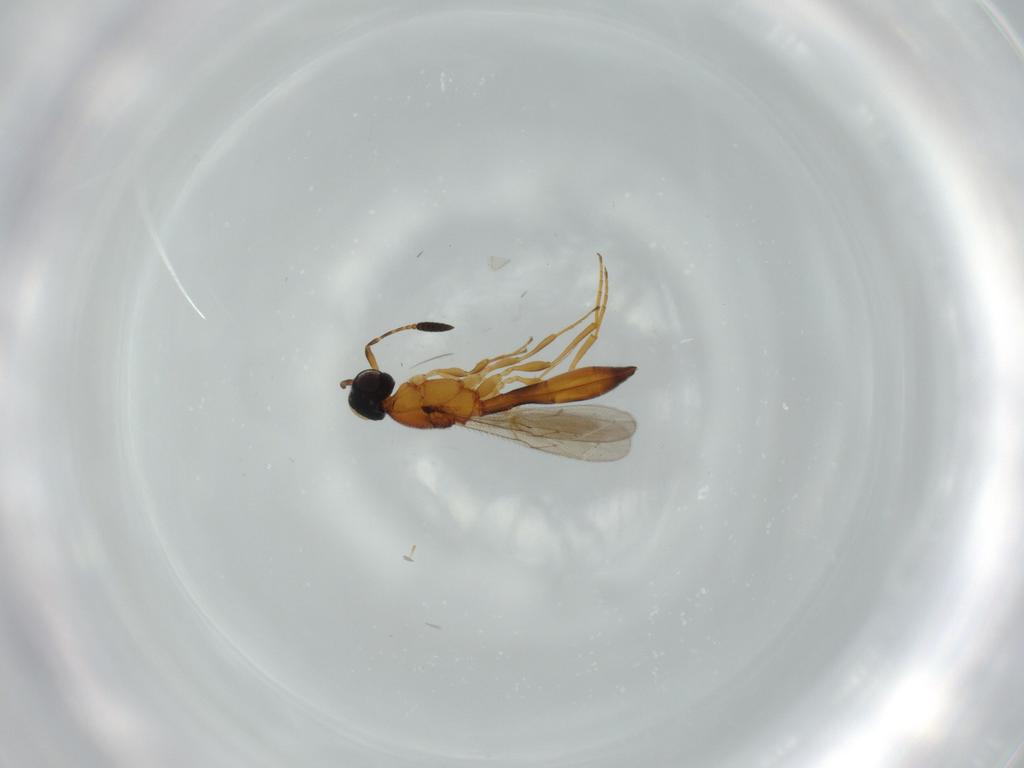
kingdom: Animalia
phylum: Arthropoda
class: Insecta
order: Hymenoptera
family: Scelionidae
